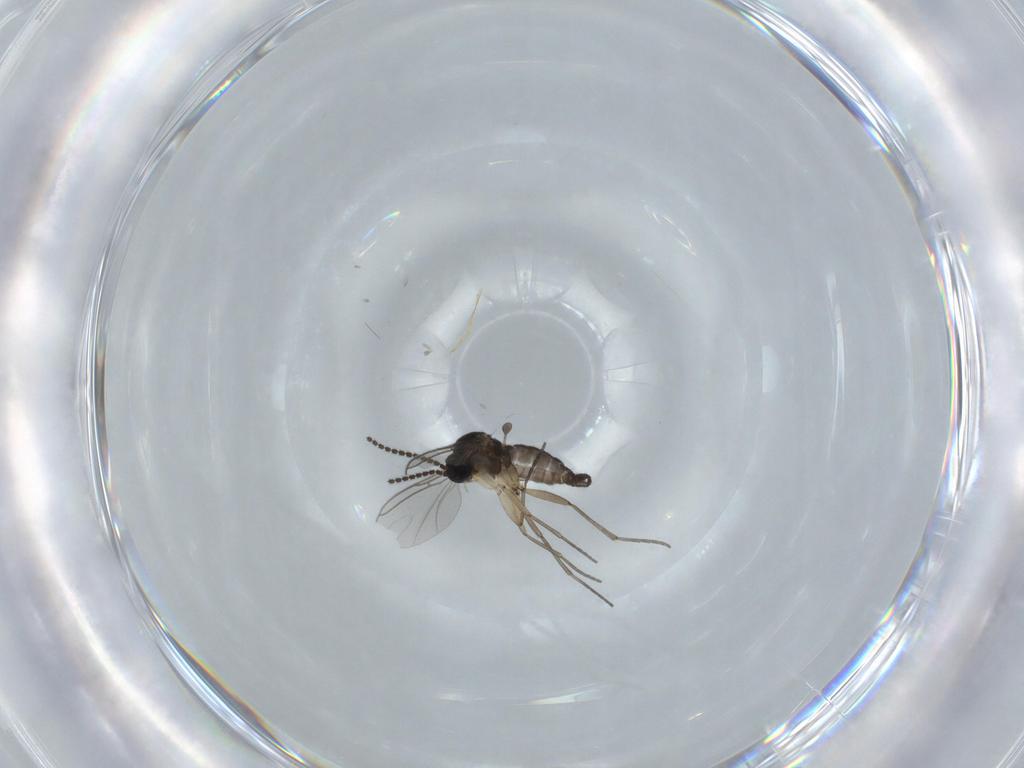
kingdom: Animalia
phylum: Arthropoda
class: Insecta
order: Diptera
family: Sciaridae
